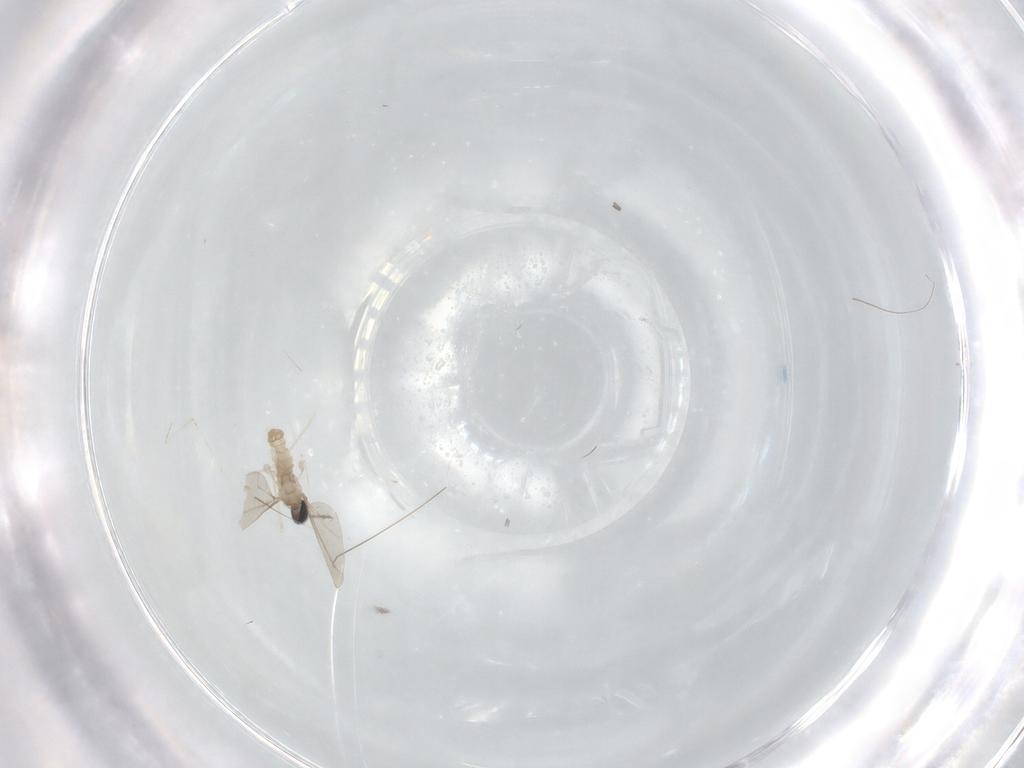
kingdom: Animalia
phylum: Arthropoda
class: Insecta
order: Diptera
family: Cecidomyiidae
